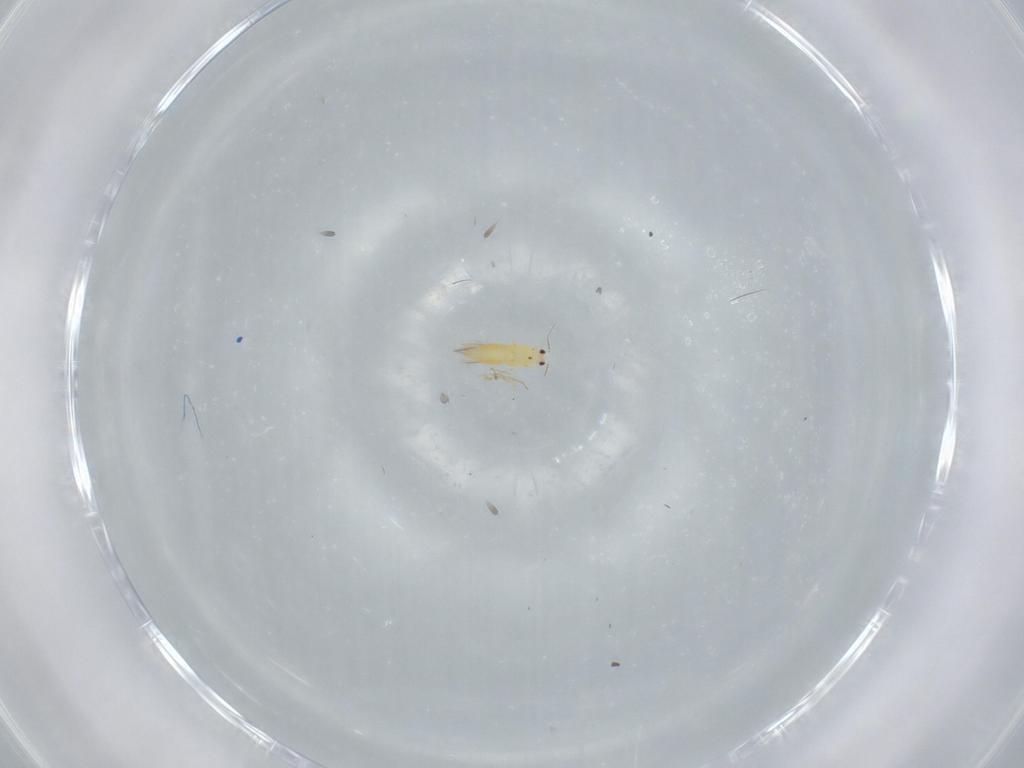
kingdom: Animalia
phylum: Arthropoda
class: Insecta
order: Thysanoptera
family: Thripidae
